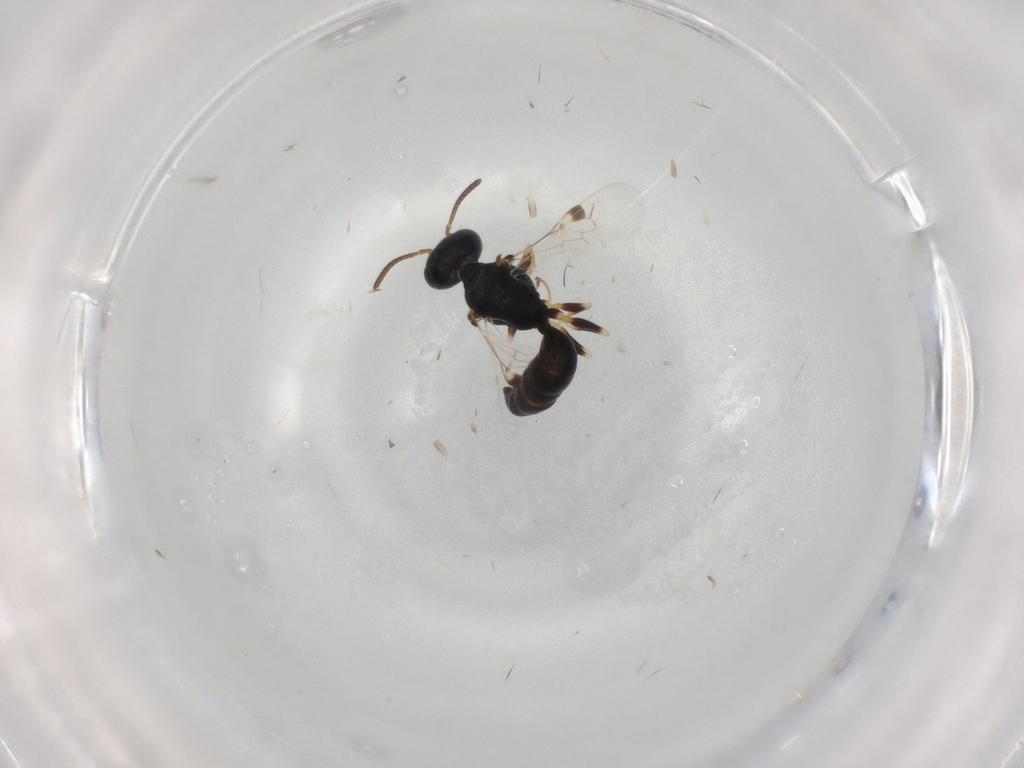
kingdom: Animalia
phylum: Arthropoda
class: Insecta
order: Hymenoptera
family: Pemphredonidae
